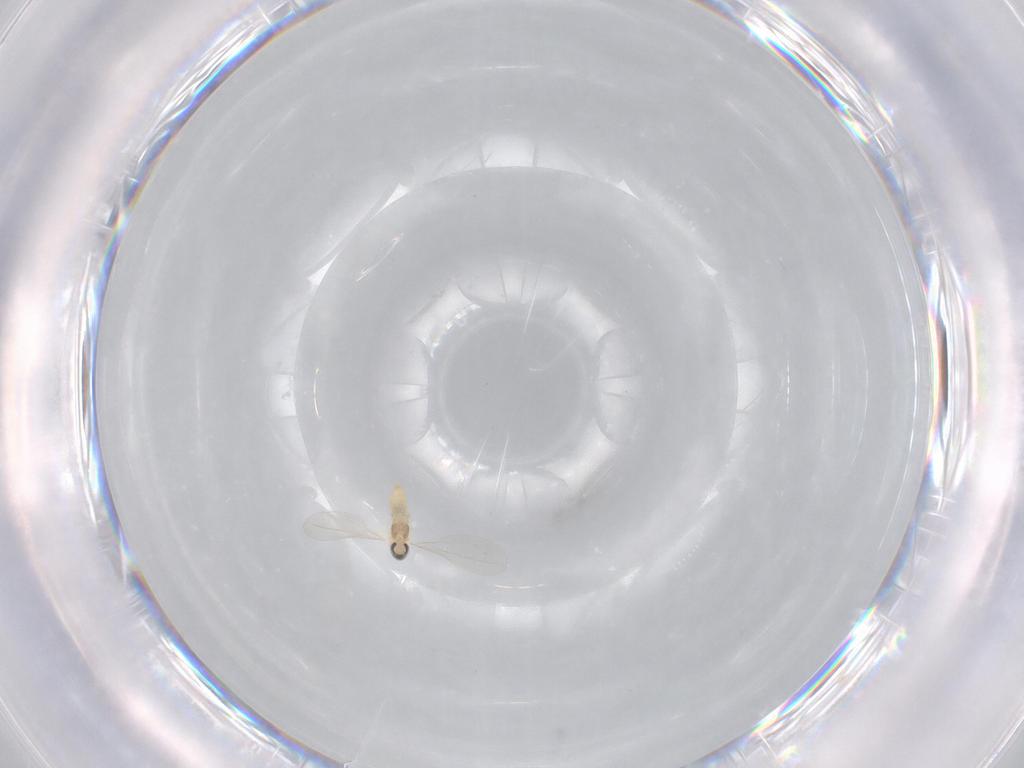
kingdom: Animalia
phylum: Arthropoda
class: Insecta
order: Diptera
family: Cecidomyiidae
